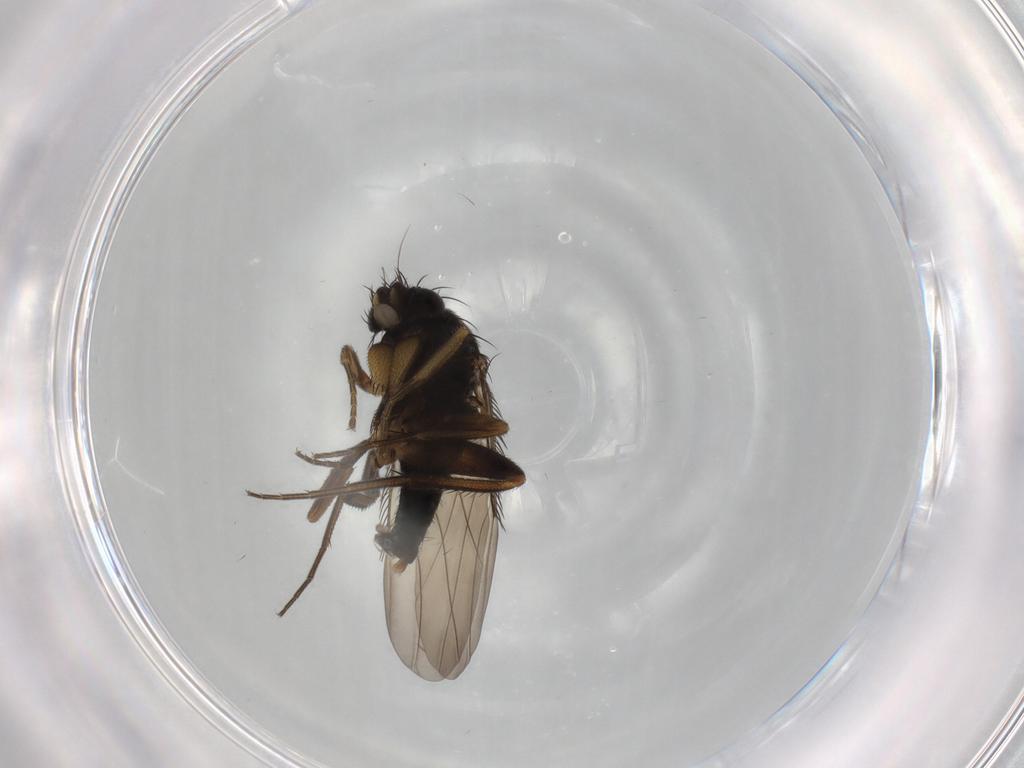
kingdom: Animalia
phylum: Arthropoda
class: Insecta
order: Diptera
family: Phoridae
